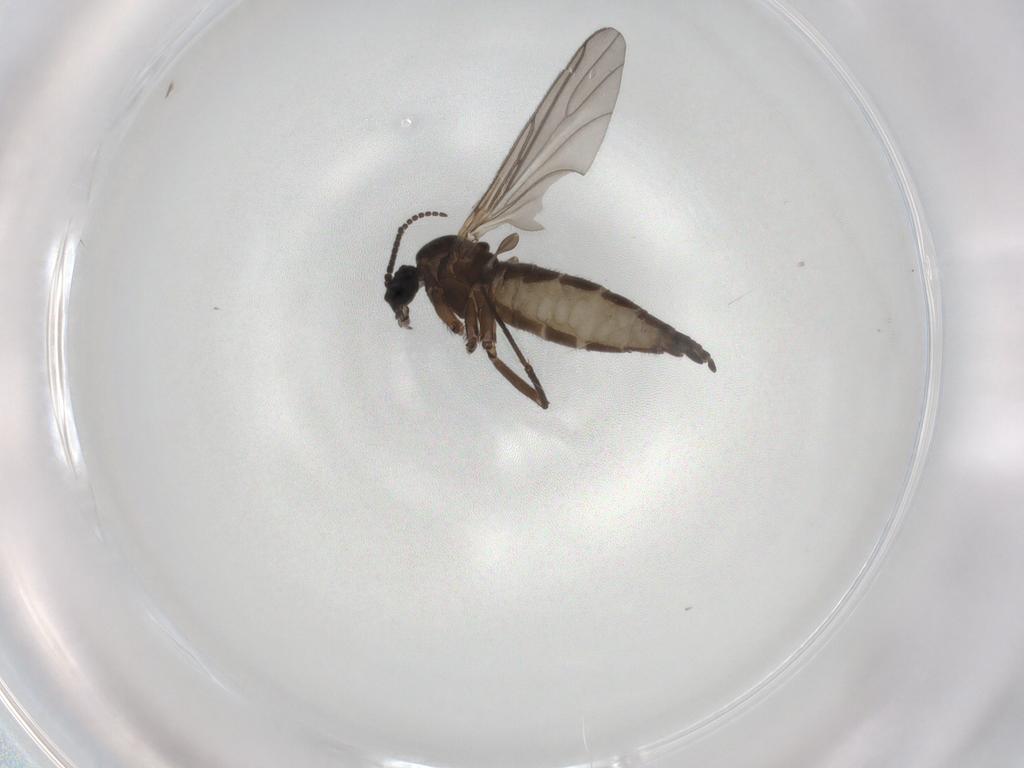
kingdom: Animalia
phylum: Arthropoda
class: Insecta
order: Diptera
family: Sciaridae
